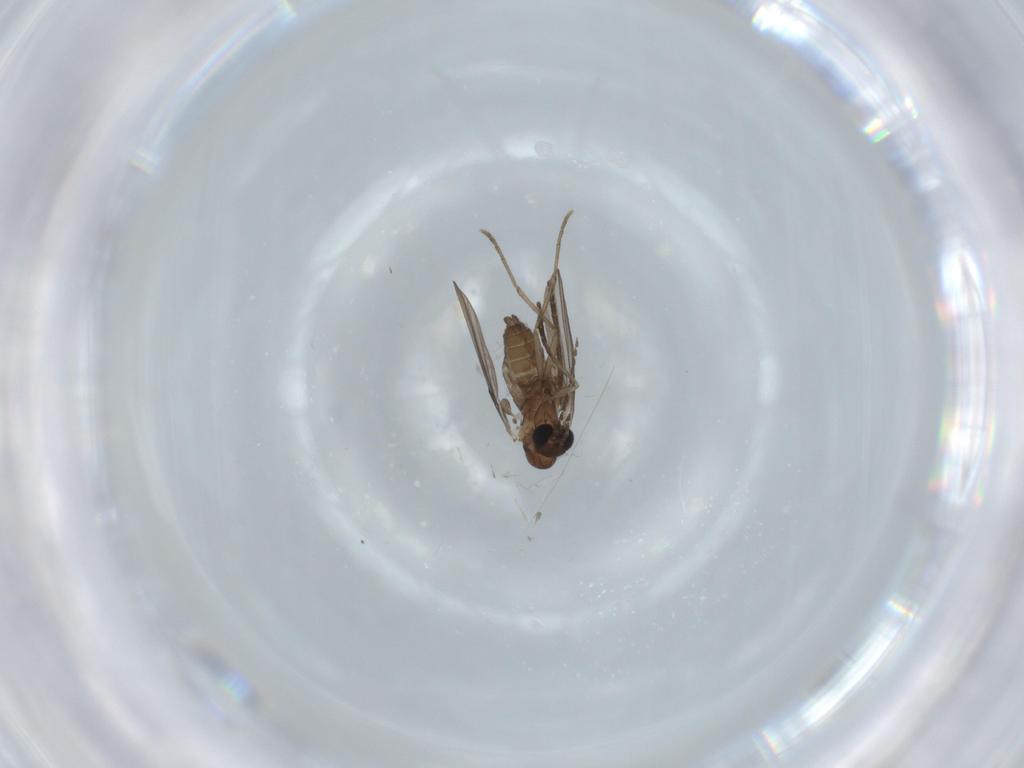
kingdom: Animalia
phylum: Arthropoda
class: Insecta
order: Diptera
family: Psychodidae
